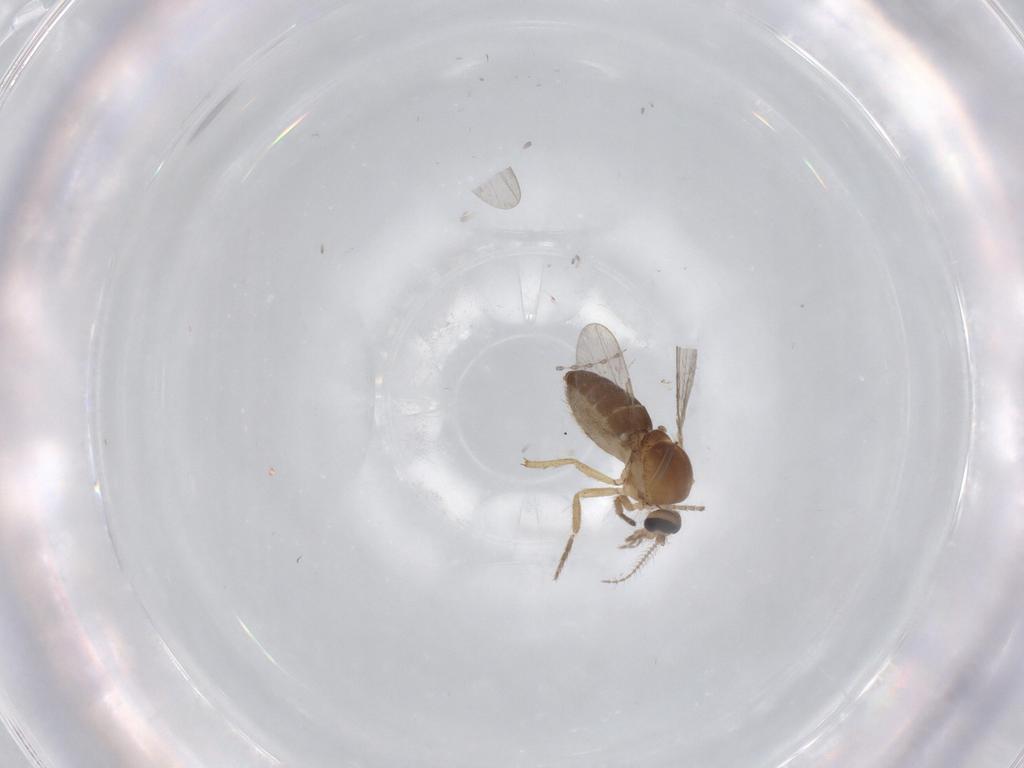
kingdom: Animalia
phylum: Arthropoda
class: Insecta
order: Diptera
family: Ceratopogonidae
